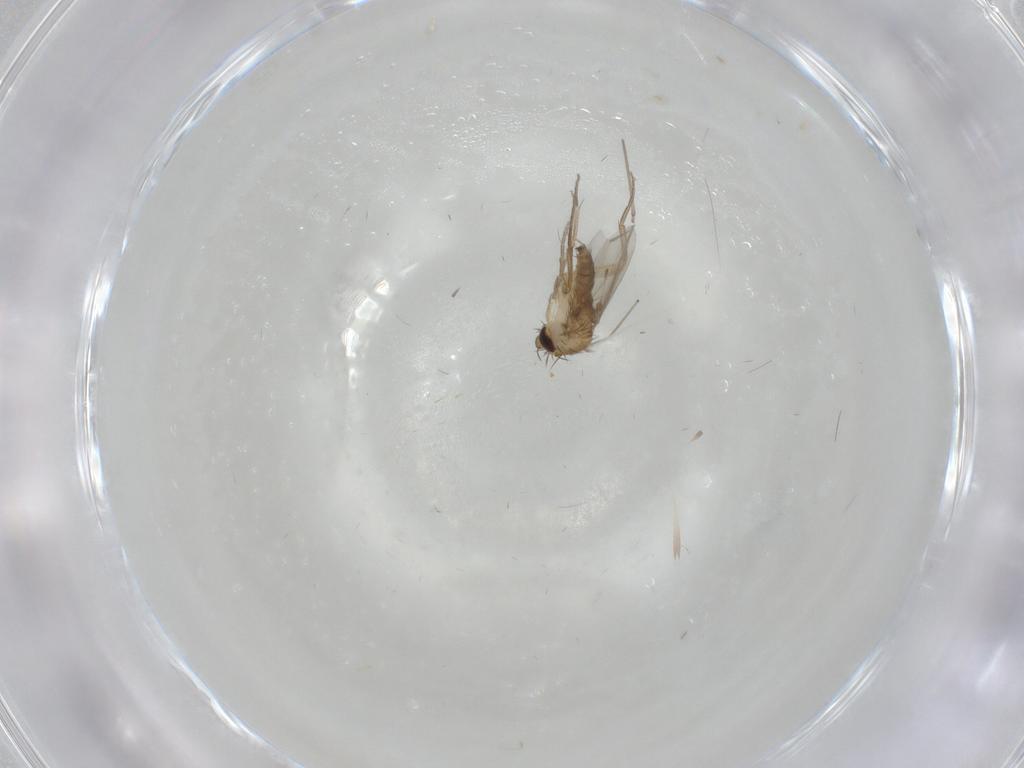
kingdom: Animalia
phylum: Arthropoda
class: Insecta
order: Diptera
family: Phoridae
